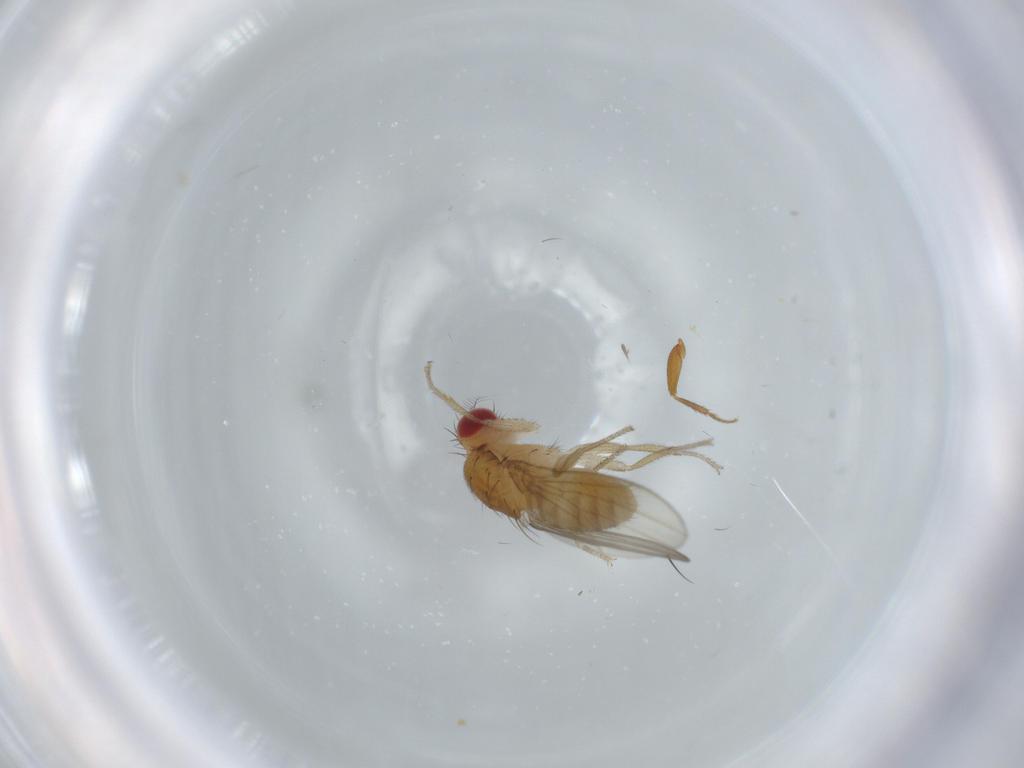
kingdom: Animalia
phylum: Arthropoda
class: Insecta
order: Diptera
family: Drosophilidae
